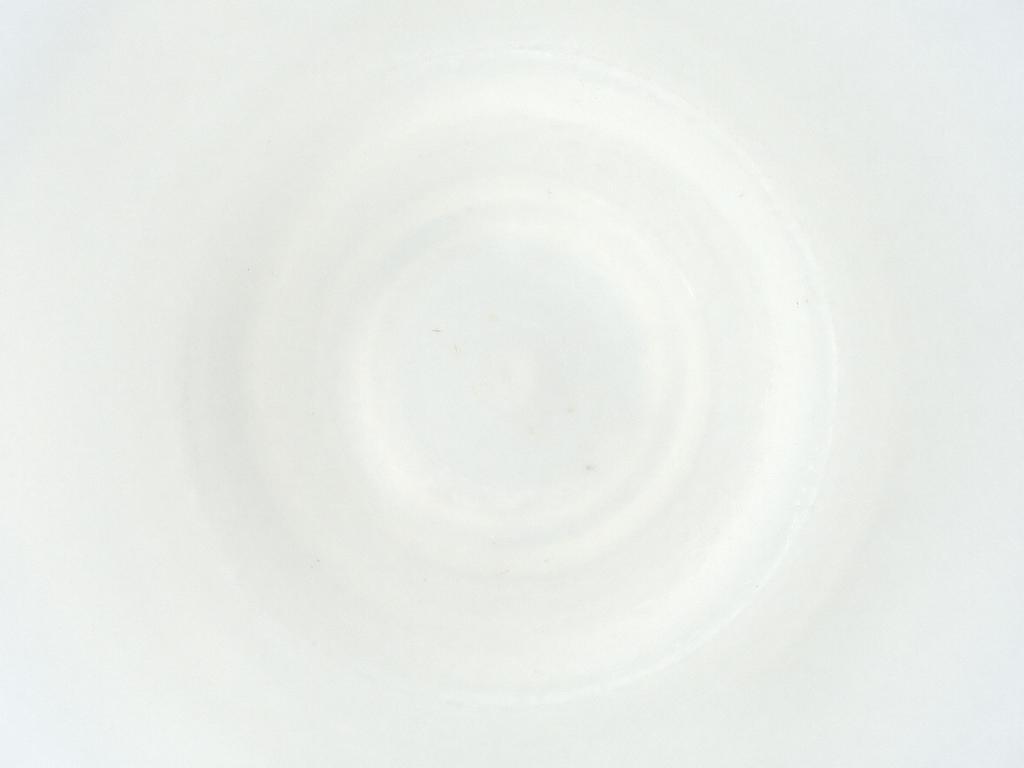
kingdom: Animalia
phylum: Arthropoda
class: Arachnida
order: Mesostigmata
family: Phytoseiidae
